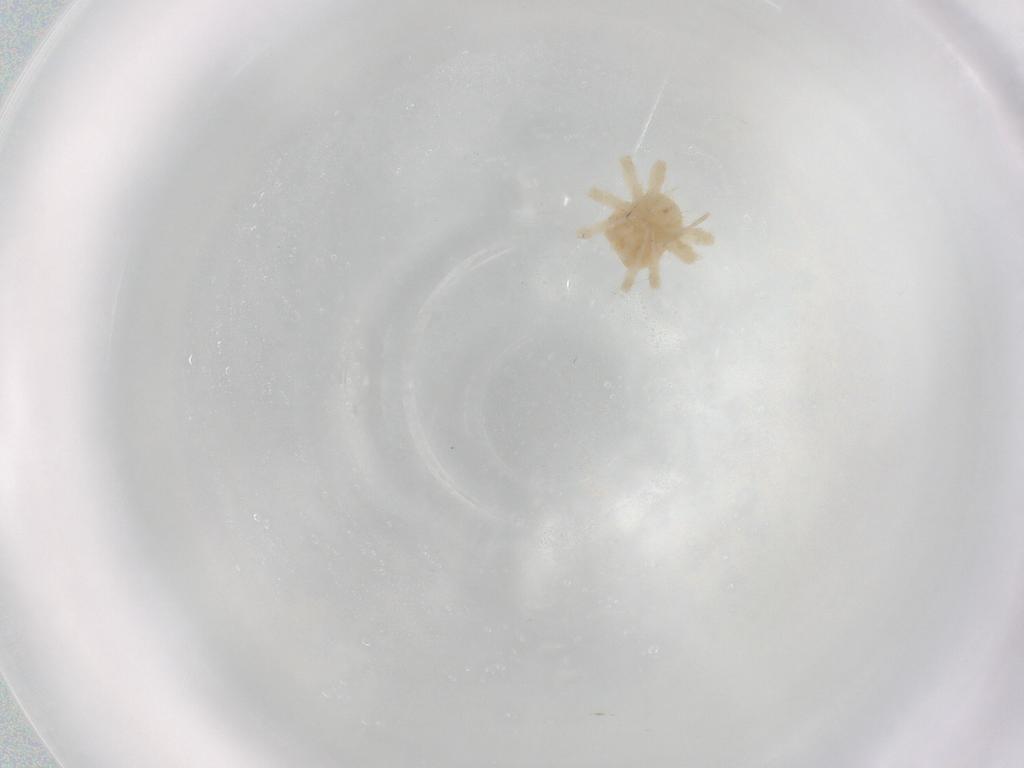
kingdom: Animalia
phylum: Arthropoda
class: Arachnida
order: Trombidiformes
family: Anystidae
